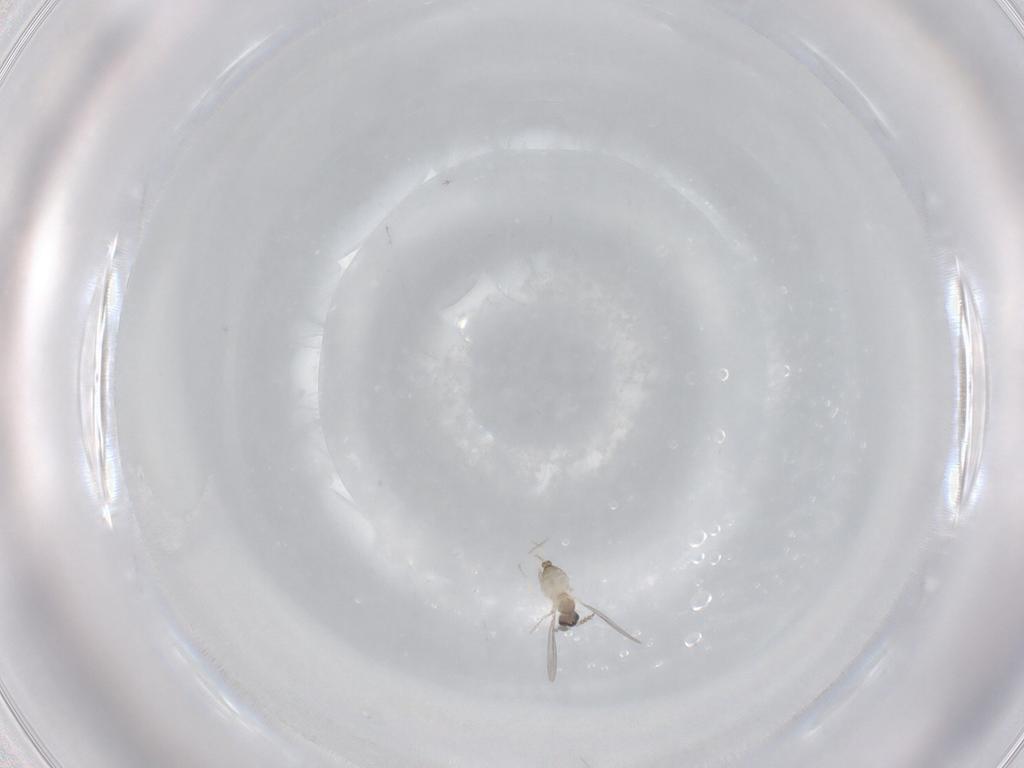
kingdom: Animalia
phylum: Arthropoda
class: Insecta
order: Diptera
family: Cecidomyiidae
